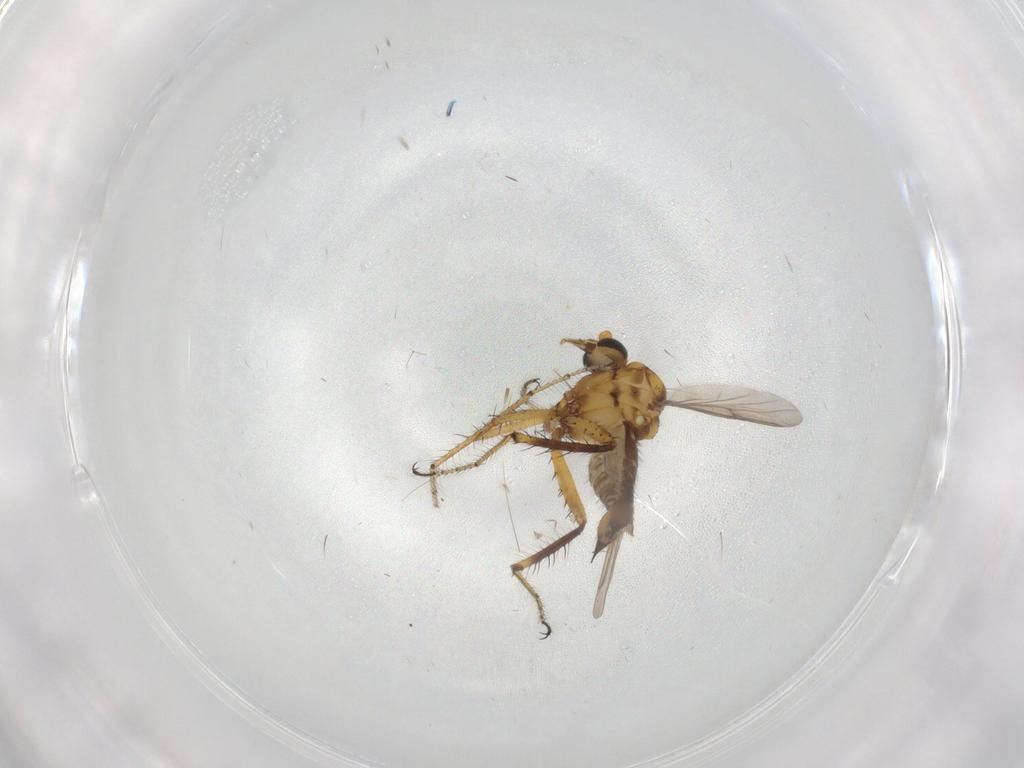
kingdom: Animalia
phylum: Arthropoda
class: Insecta
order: Diptera
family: Ceratopogonidae
